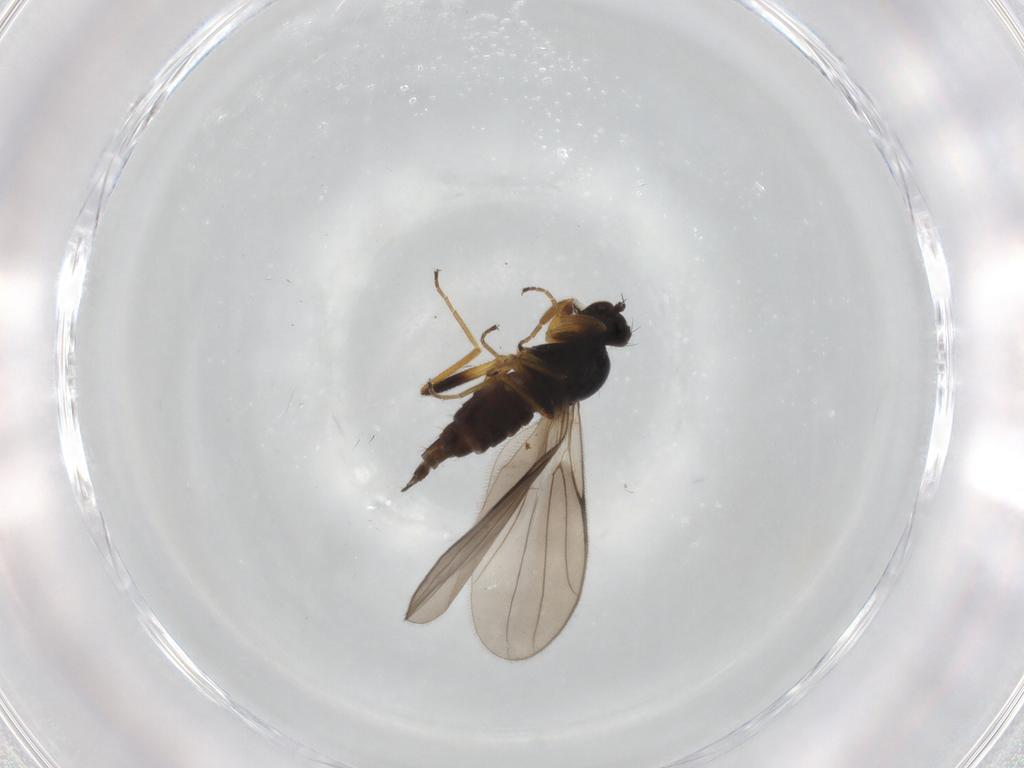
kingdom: Animalia
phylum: Arthropoda
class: Insecta
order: Diptera
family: Hybotidae
